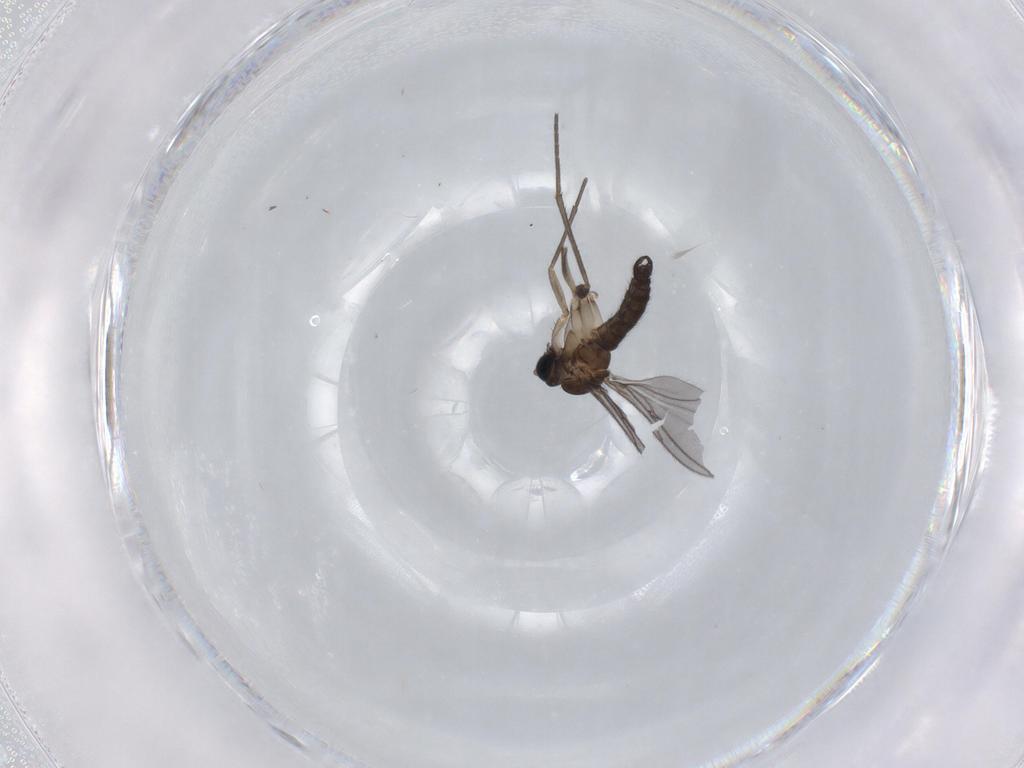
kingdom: Animalia
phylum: Arthropoda
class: Insecta
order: Diptera
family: Sciaridae
